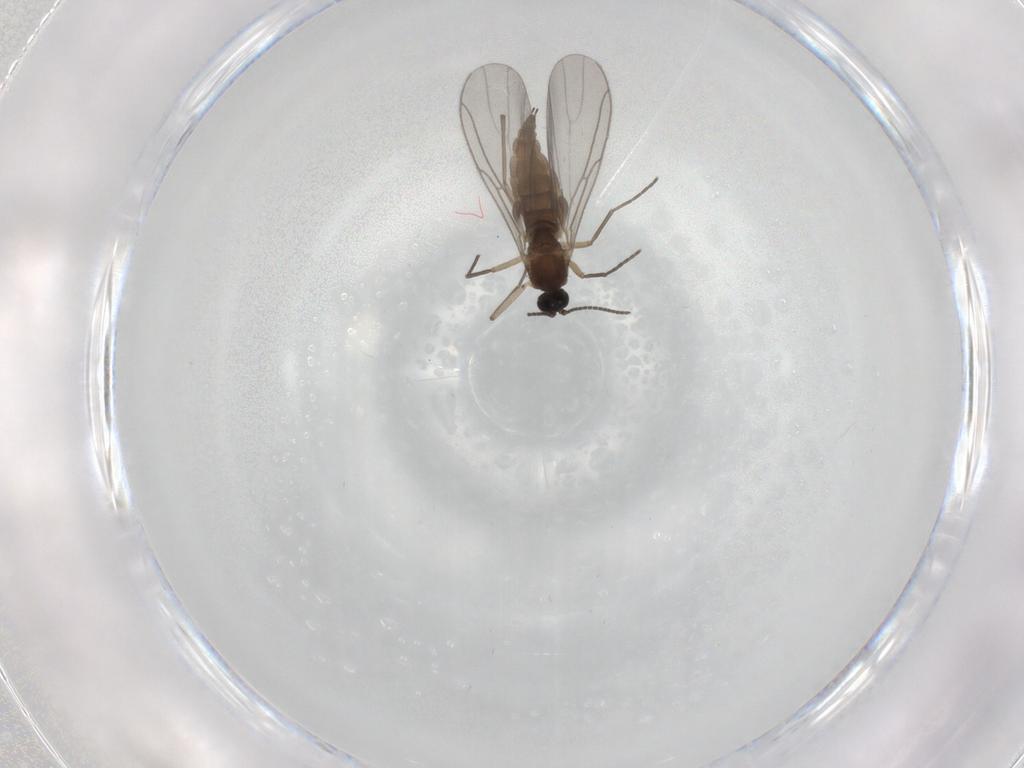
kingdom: Animalia
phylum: Arthropoda
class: Insecta
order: Diptera
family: Sciaridae
